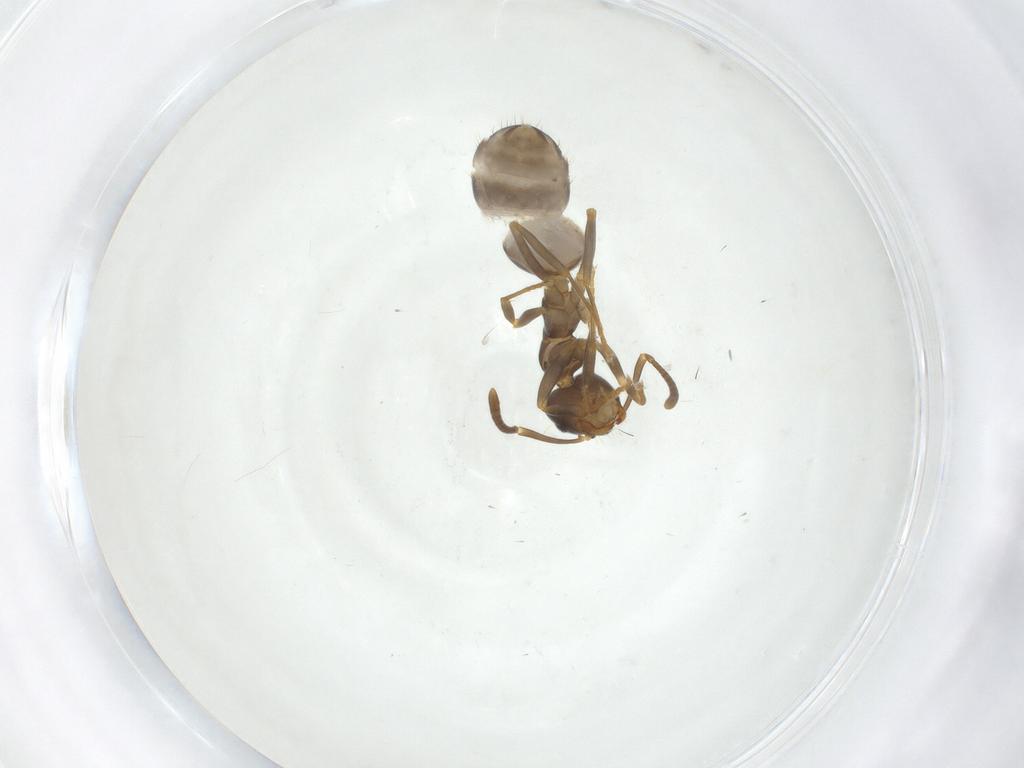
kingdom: Animalia
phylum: Arthropoda
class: Insecta
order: Hymenoptera
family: Formicidae
